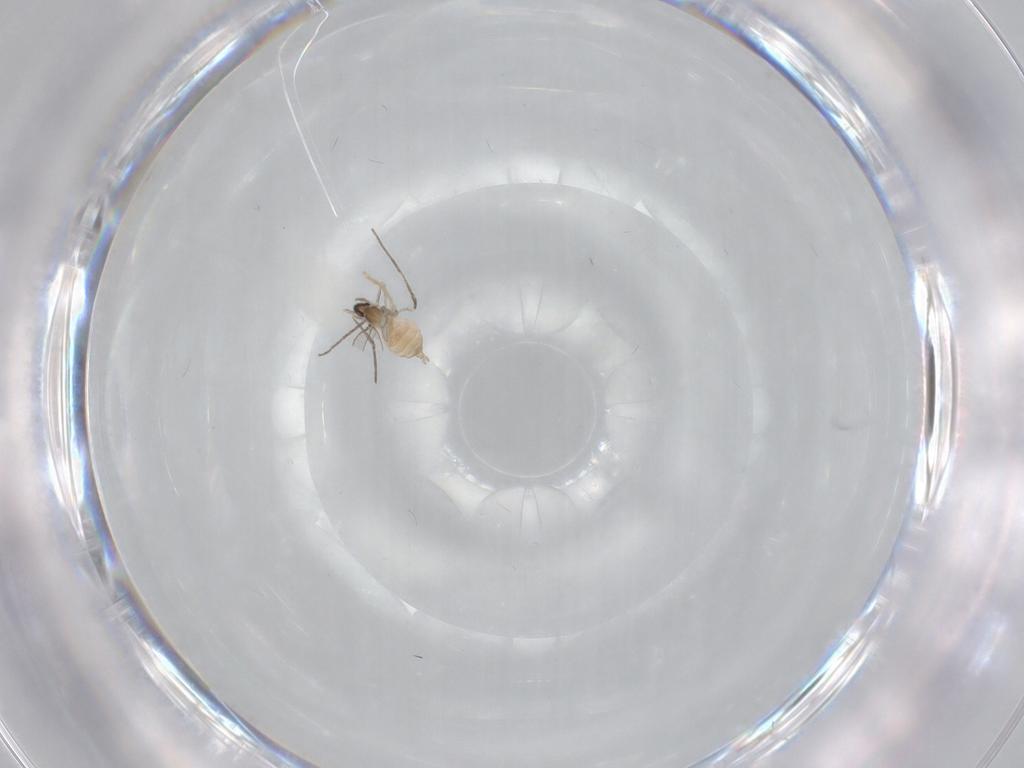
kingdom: Animalia
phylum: Arthropoda
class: Insecta
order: Diptera
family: Cecidomyiidae
